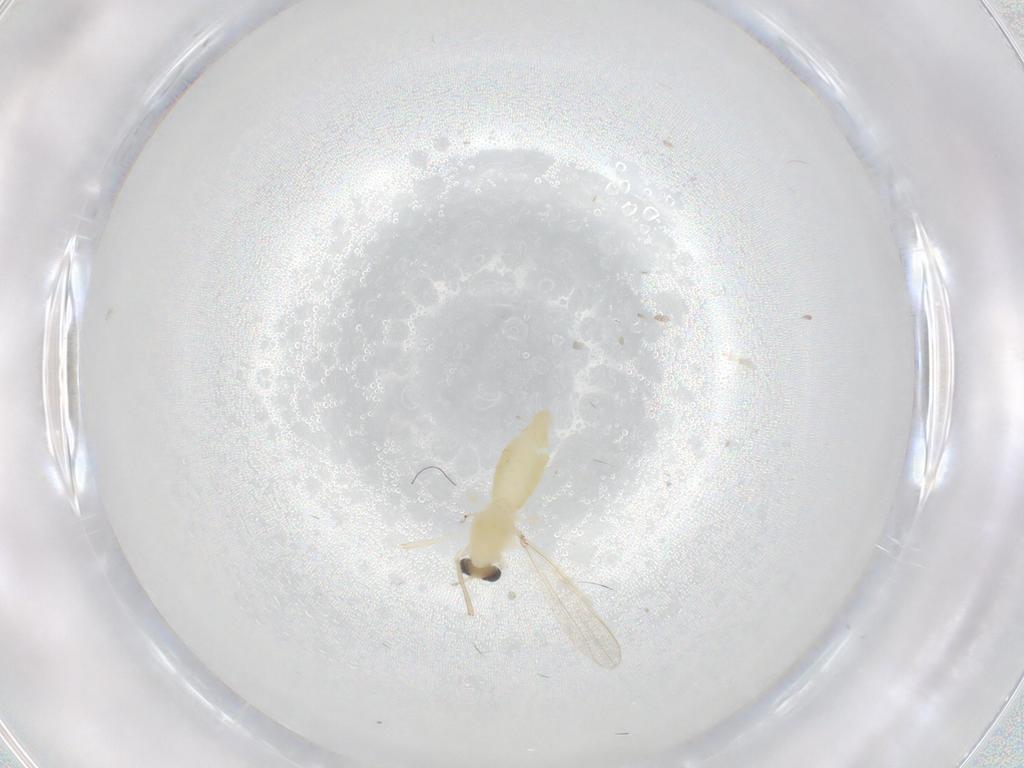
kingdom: Animalia
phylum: Arthropoda
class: Insecta
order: Diptera
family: Chironomidae
